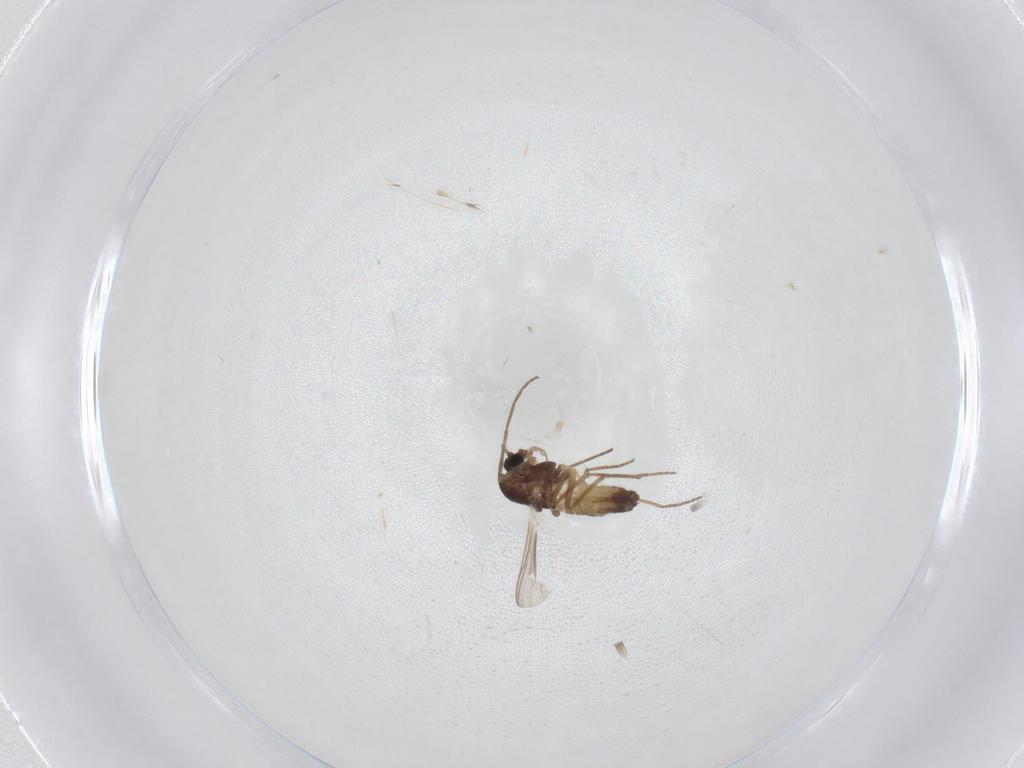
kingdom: Animalia
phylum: Arthropoda
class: Insecta
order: Diptera
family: Chironomidae
